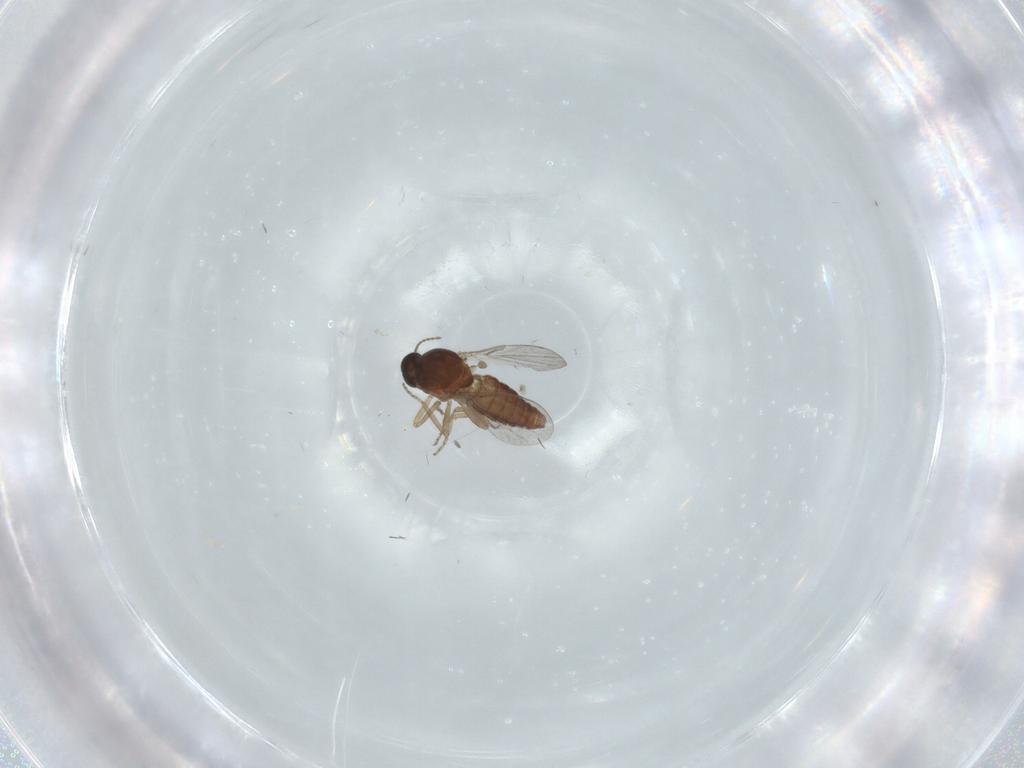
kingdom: Animalia
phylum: Arthropoda
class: Insecta
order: Diptera
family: Ceratopogonidae
